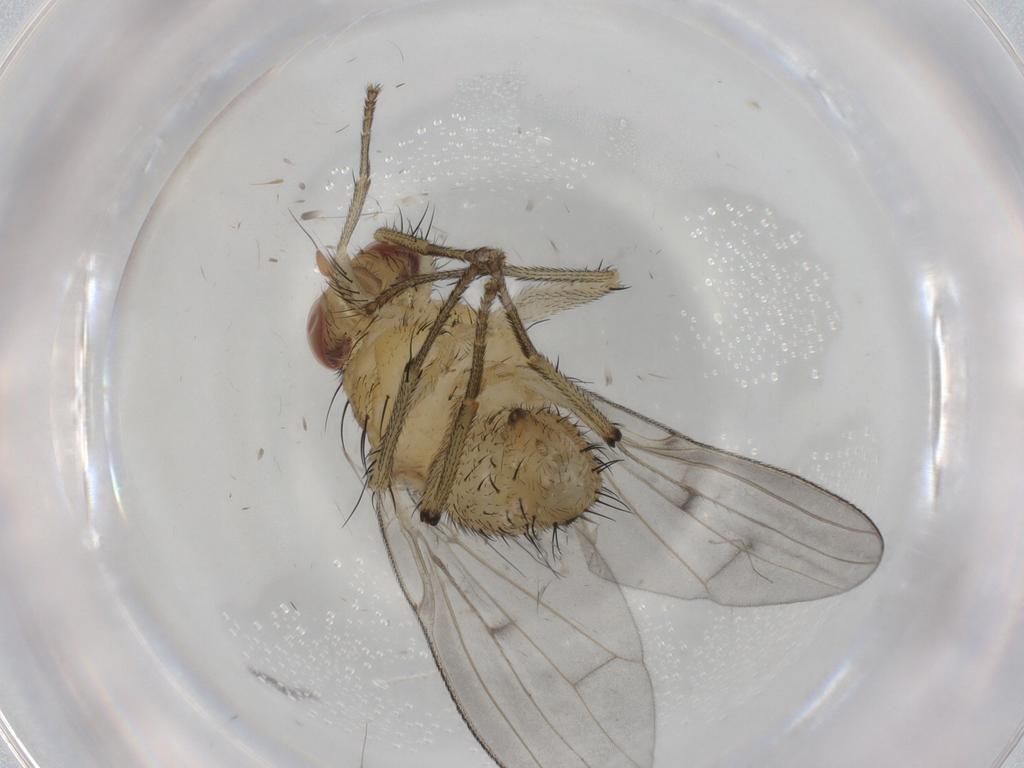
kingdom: Animalia
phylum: Arthropoda
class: Insecta
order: Diptera
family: Lauxaniidae
